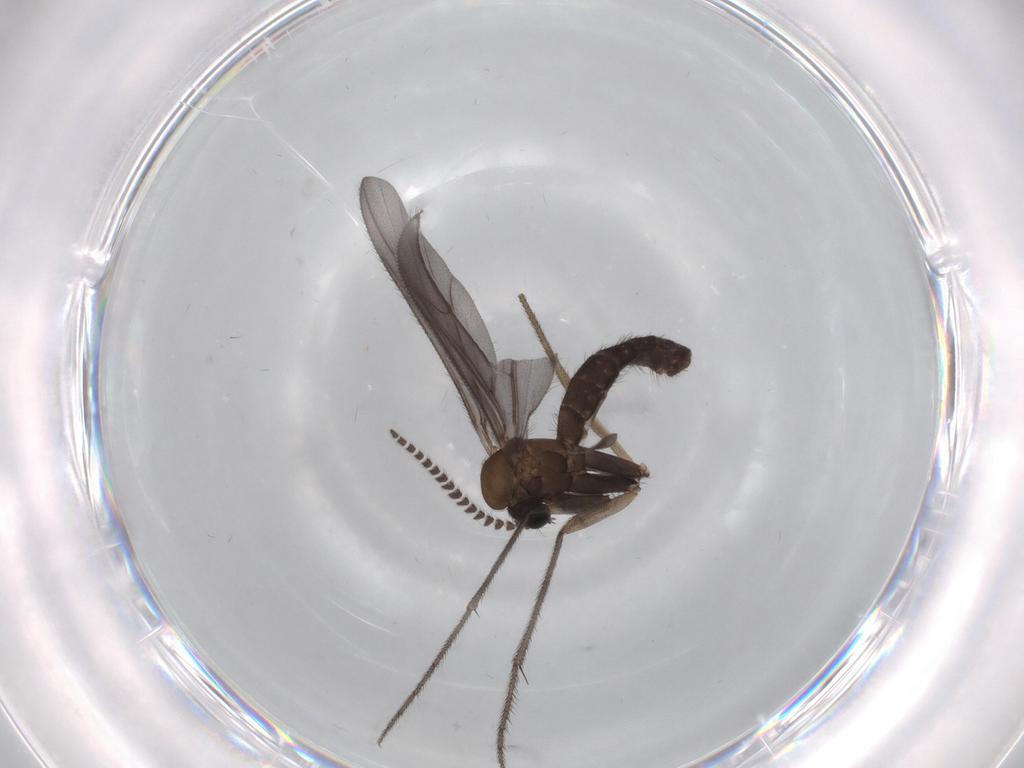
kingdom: Animalia
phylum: Arthropoda
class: Insecta
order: Diptera
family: Ditomyiidae
